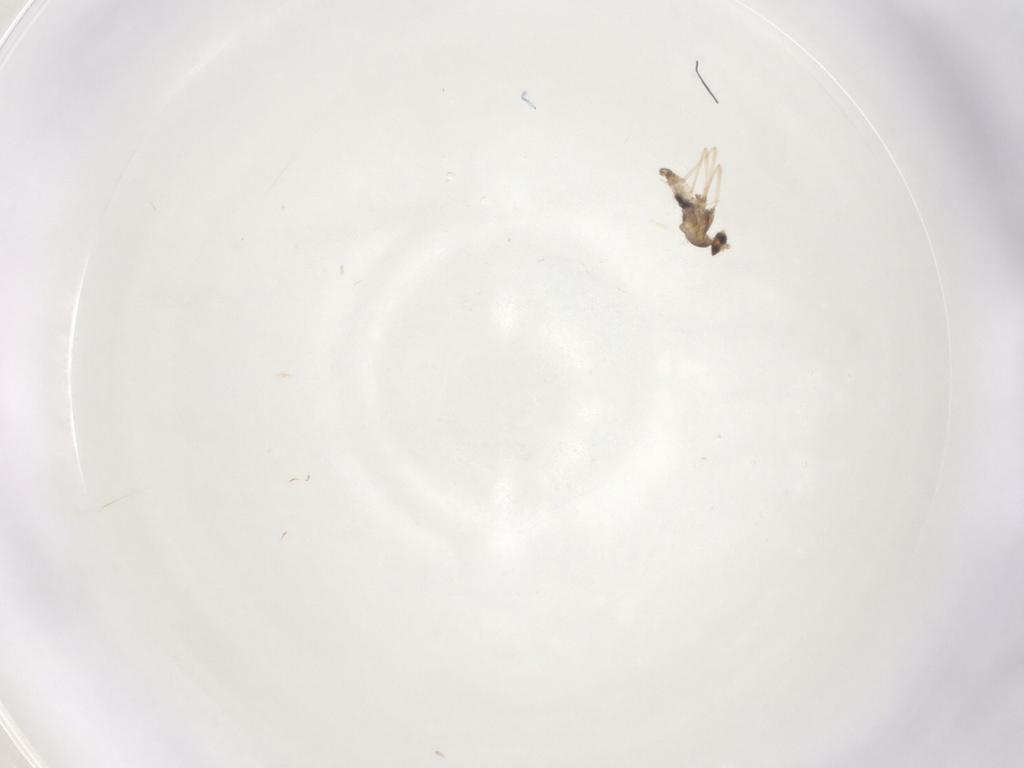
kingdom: Animalia
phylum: Arthropoda
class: Insecta
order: Diptera
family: Cecidomyiidae
